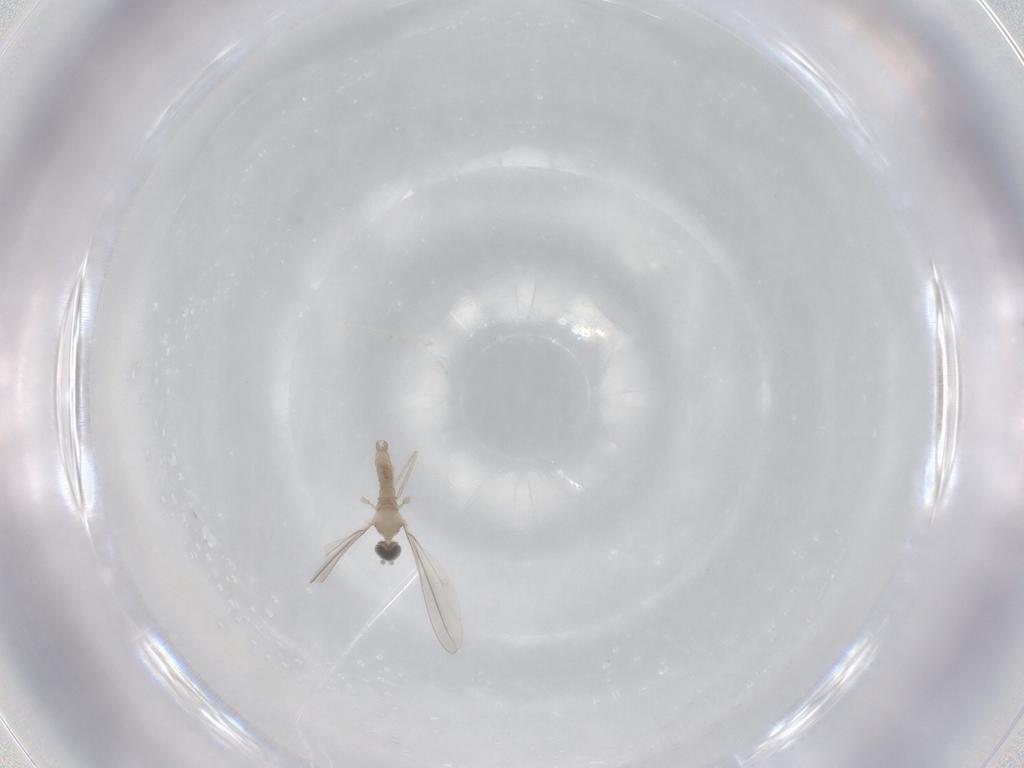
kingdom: Animalia
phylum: Arthropoda
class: Insecta
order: Diptera
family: Cecidomyiidae
